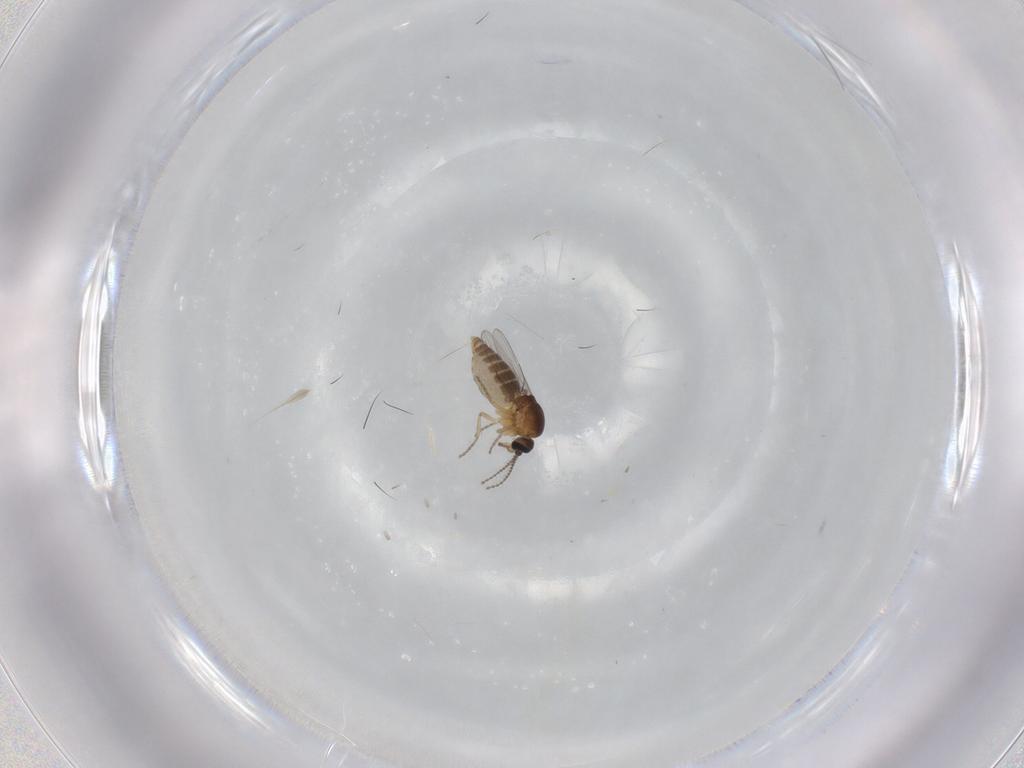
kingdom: Animalia
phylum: Arthropoda
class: Insecta
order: Diptera
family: Ceratopogonidae
